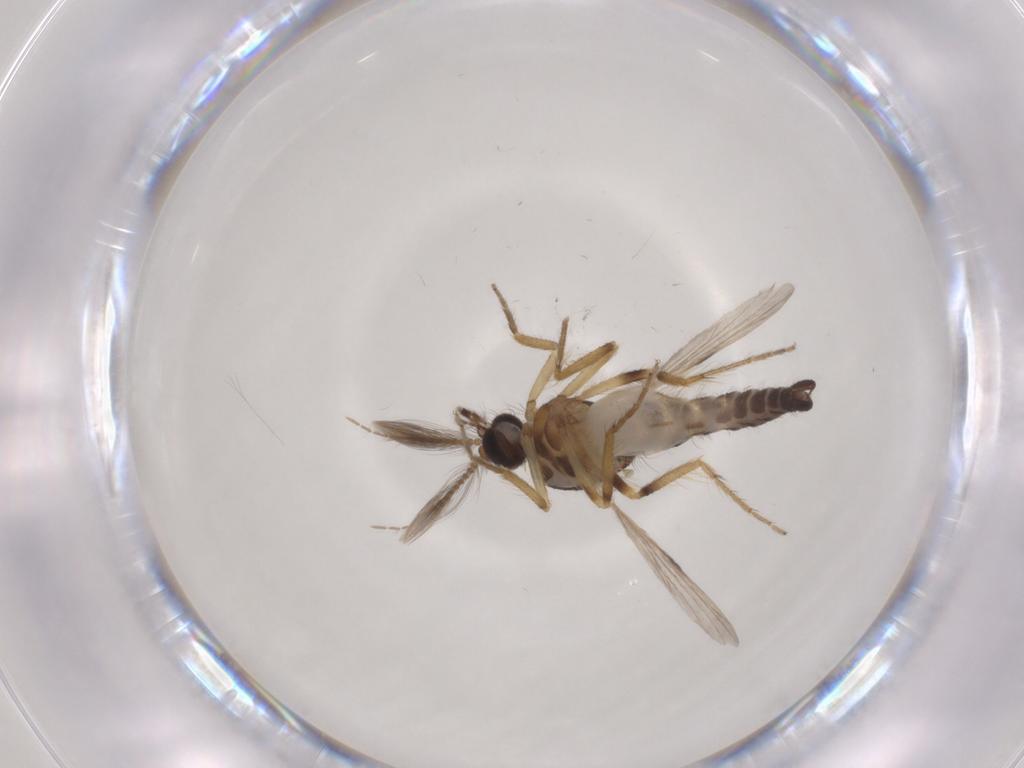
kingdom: Animalia
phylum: Arthropoda
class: Insecta
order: Diptera
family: Ceratopogonidae
